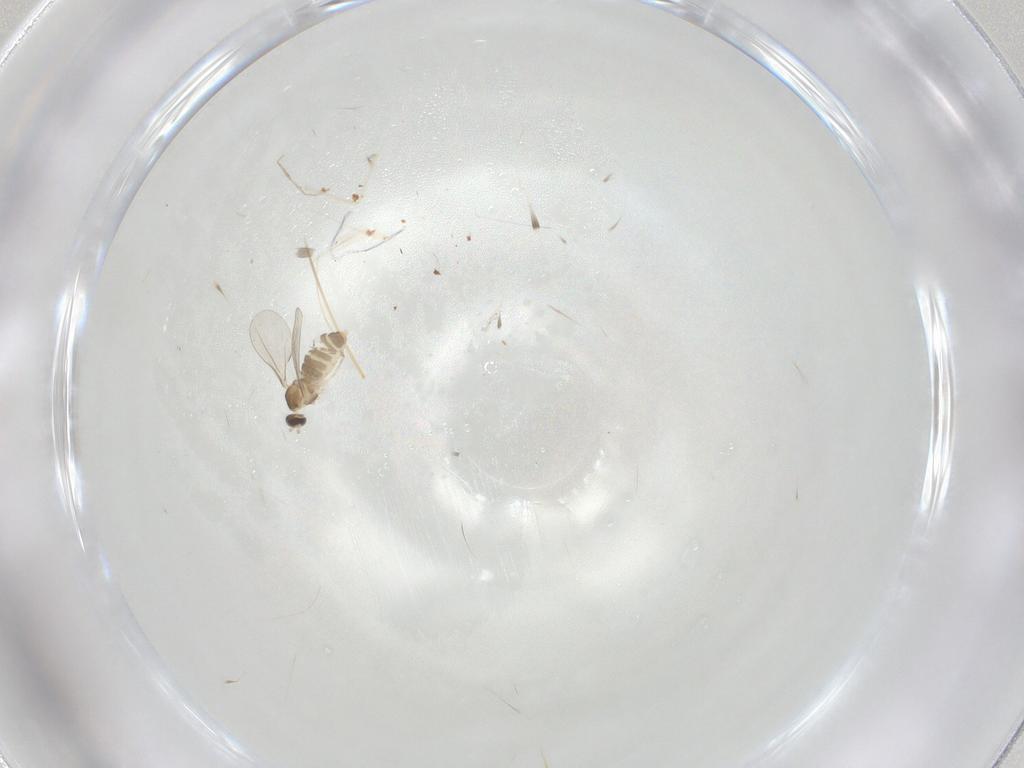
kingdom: Animalia
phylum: Arthropoda
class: Insecta
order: Diptera
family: Cecidomyiidae
